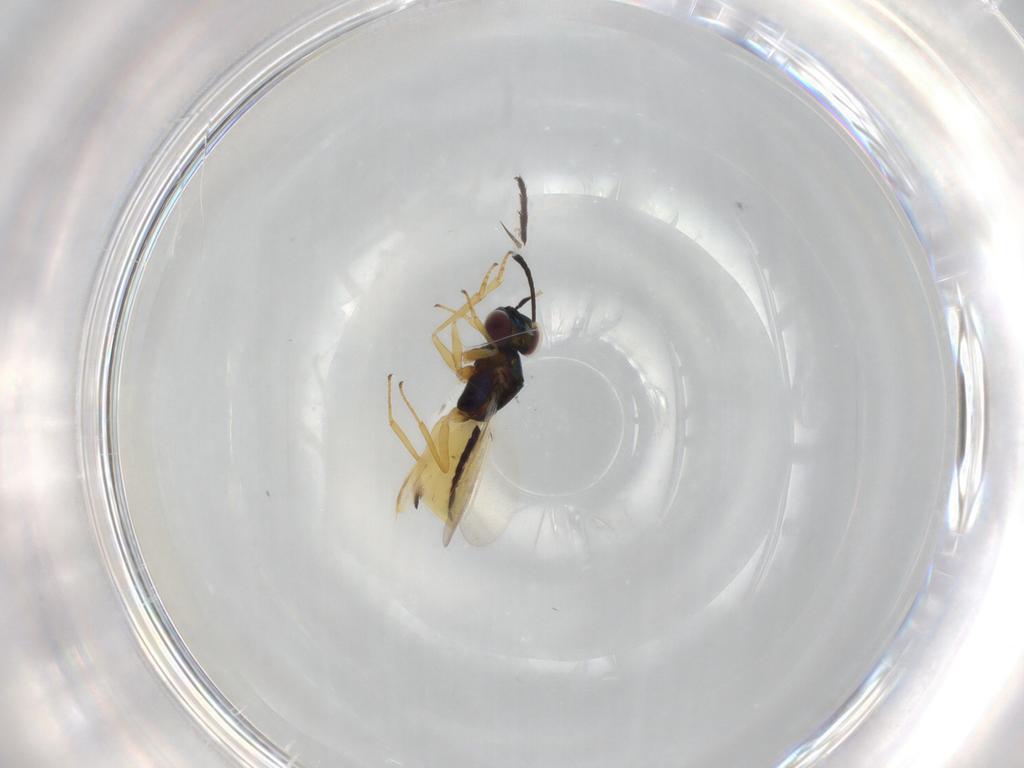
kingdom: Animalia
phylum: Arthropoda
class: Insecta
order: Hymenoptera
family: Encyrtidae
